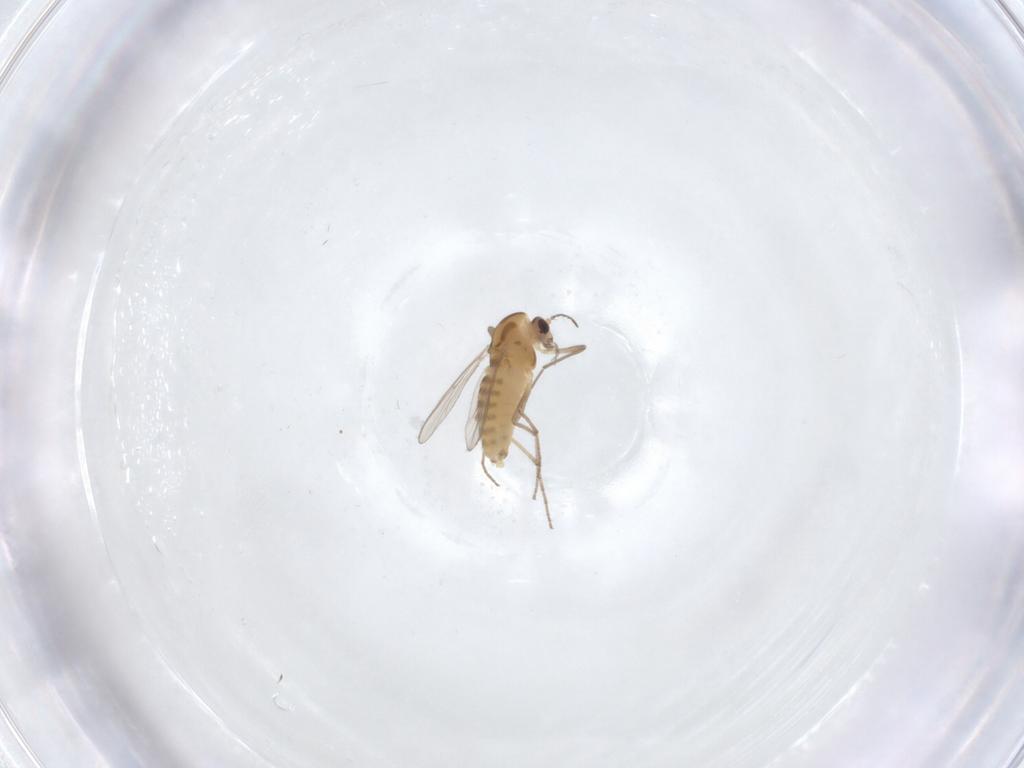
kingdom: Animalia
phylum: Arthropoda
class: Insecta
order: Diptera
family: Chironomidae
